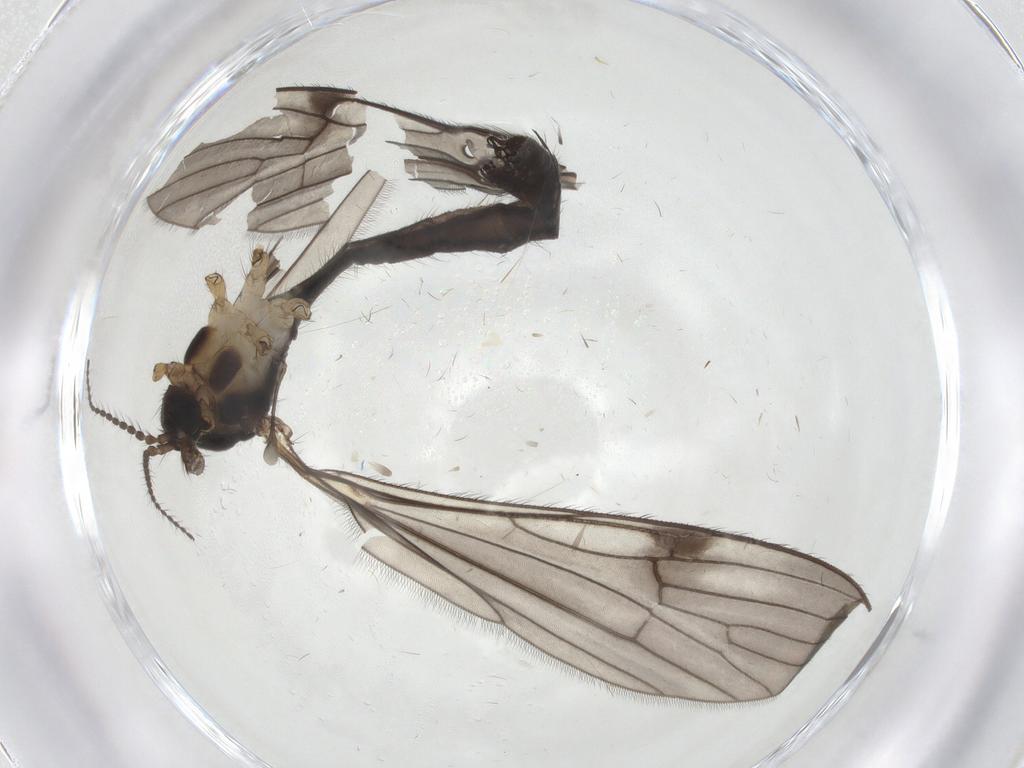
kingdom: Animalia
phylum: Arthropoda
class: Insecta
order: Diptera
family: Limoniidae
